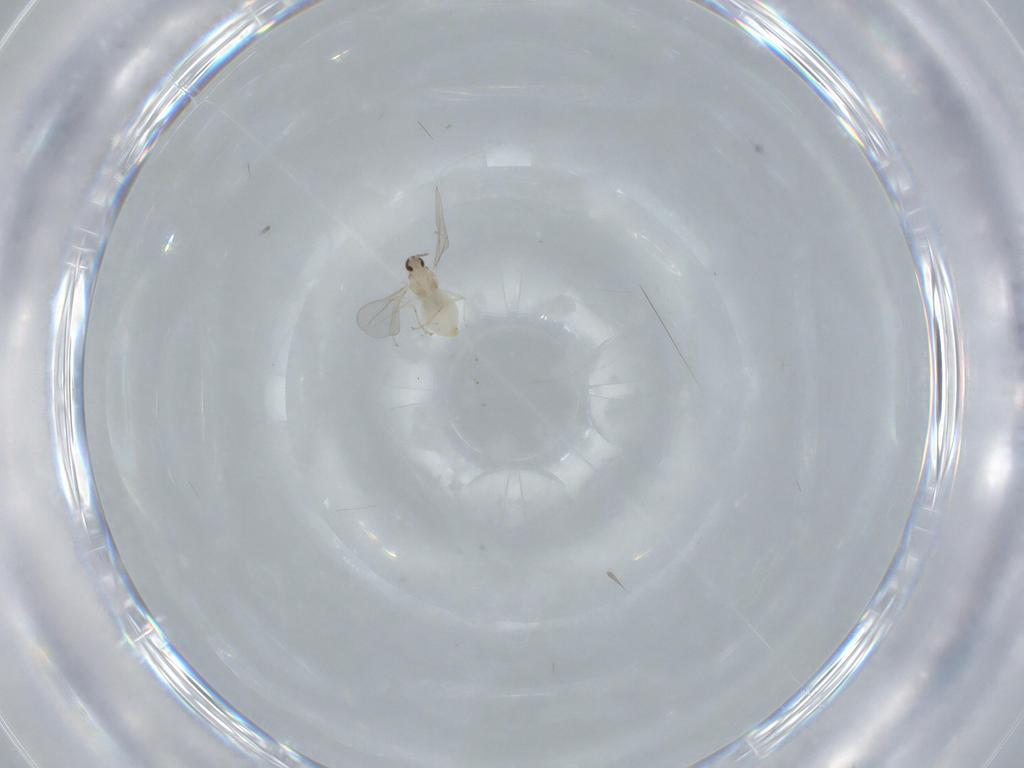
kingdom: Animalia
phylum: Arthropoda
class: Insecta
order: Diptera
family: Cecidomyiidae
